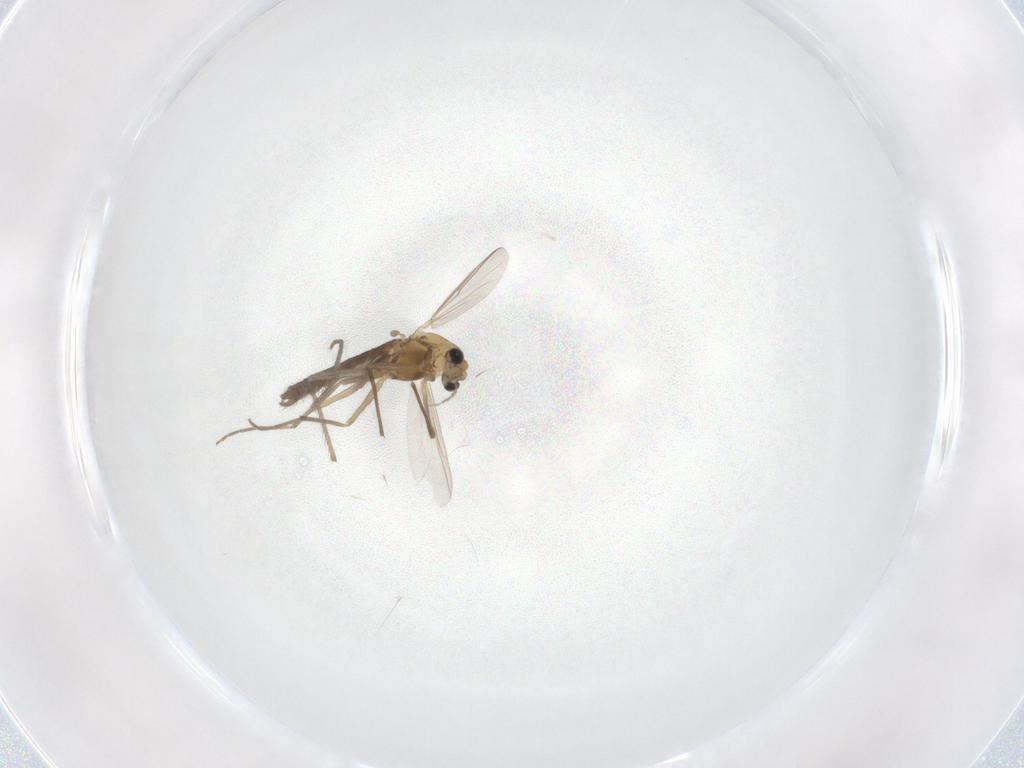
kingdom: Animalia
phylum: Arthropoda
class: Insecta
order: Diptera
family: Chironomidae
